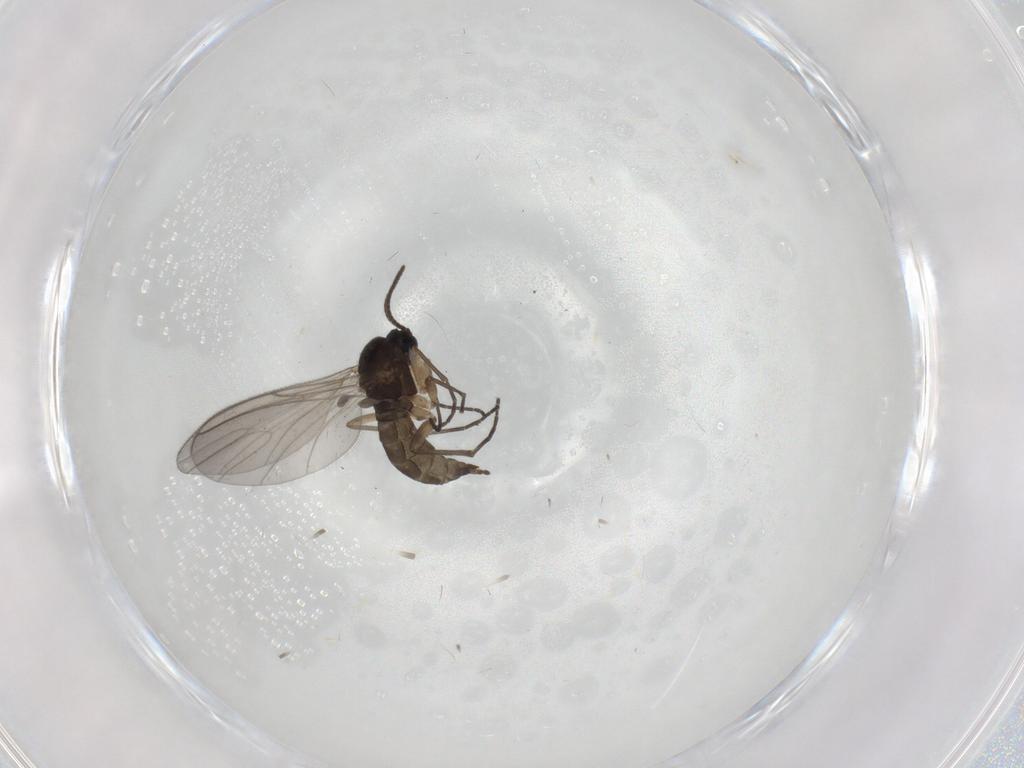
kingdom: Animalia
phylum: Arthropoda
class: Insecta
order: Diptera
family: Sciaridae
